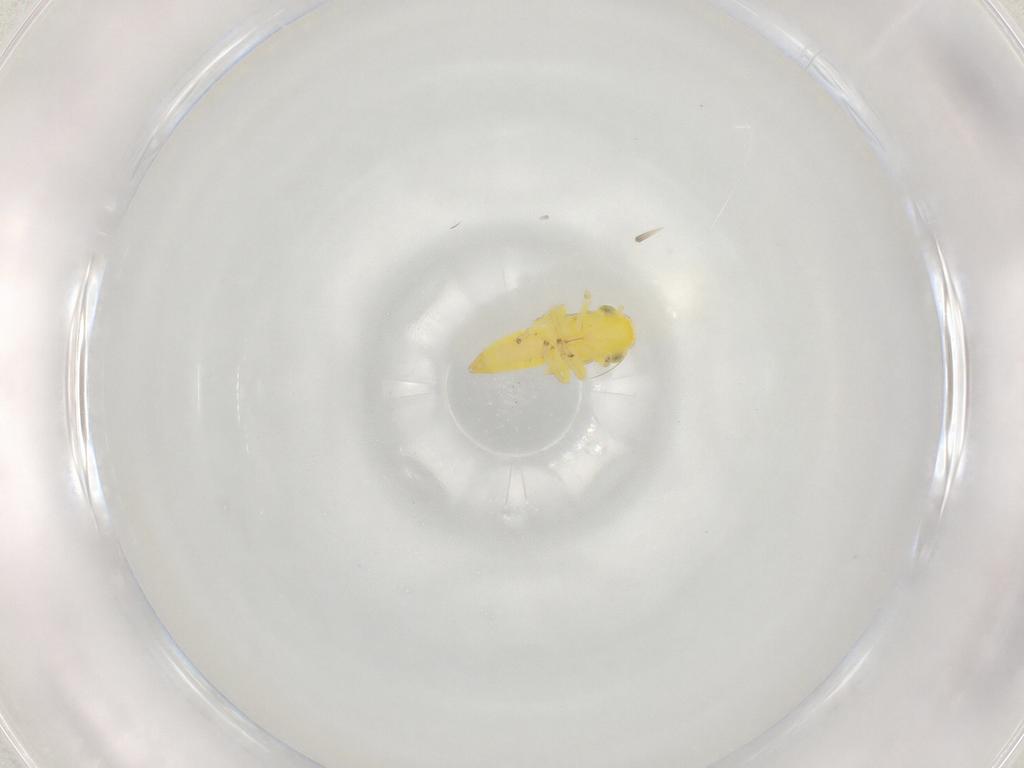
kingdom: Animalia
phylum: Arthropoda
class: Insecta
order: Hemiptera
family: Cicadellidae
